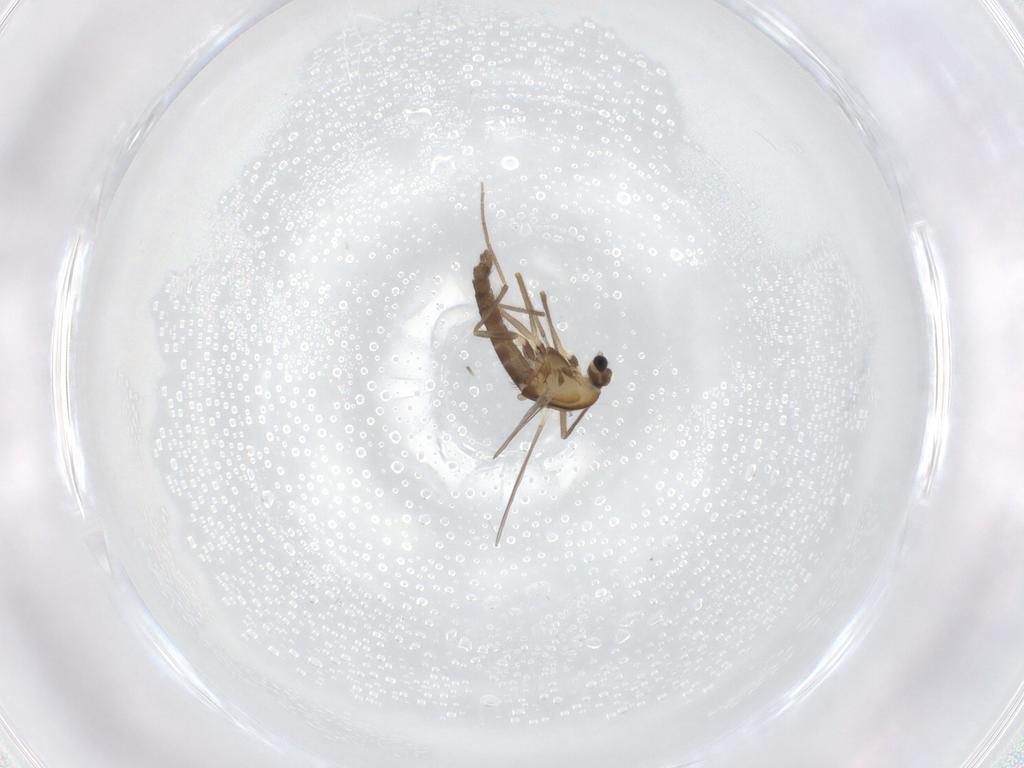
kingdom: Animalia
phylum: Arthropoda
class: Insecta
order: Diptera
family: Chironomidae
